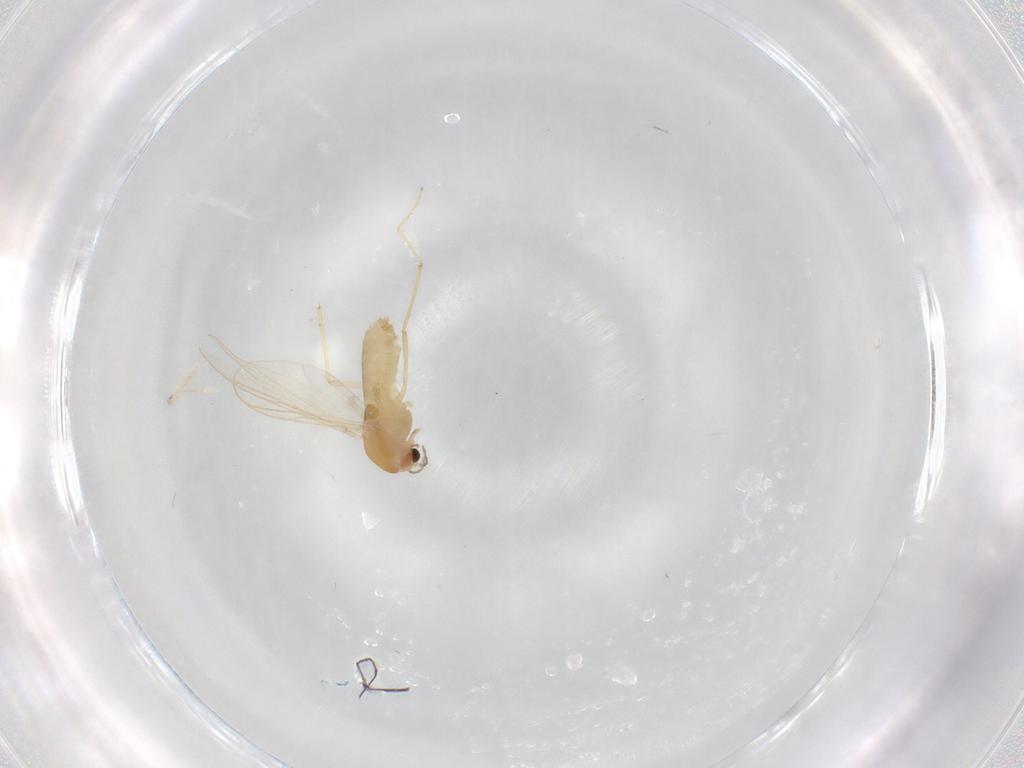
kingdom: Animalia
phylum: Arthropoda
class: Insecta
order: Diptera
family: Chironomidae
